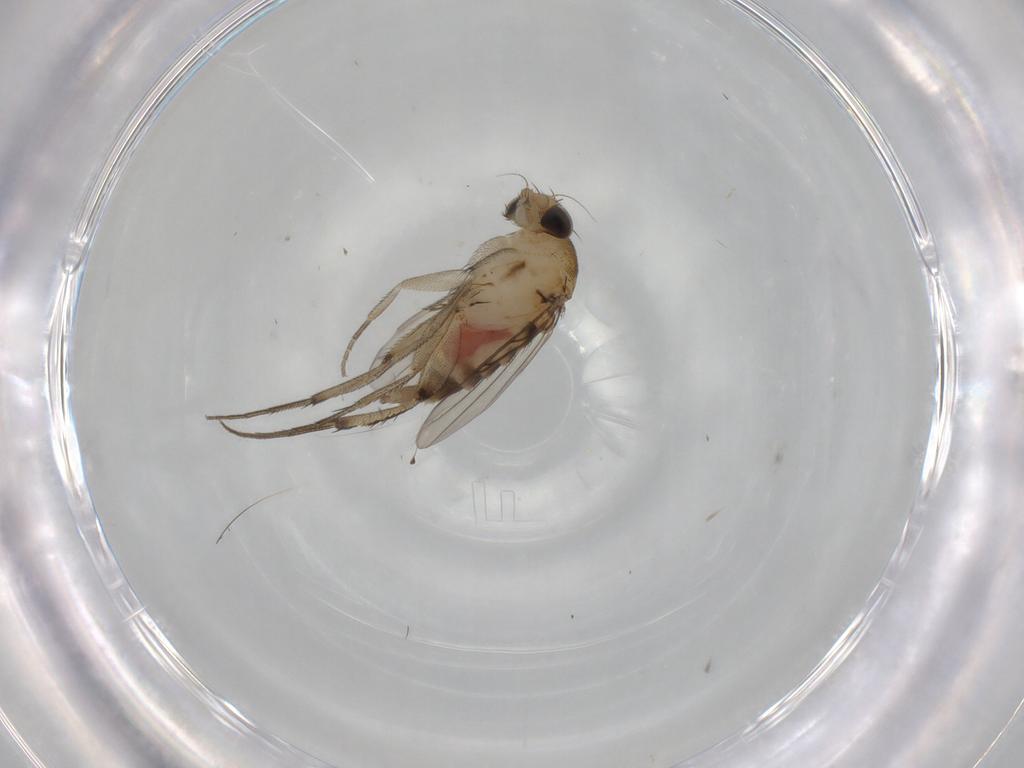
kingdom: Animalia
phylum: Arthropoda
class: Insecta
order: Diptera
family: Phoridae
